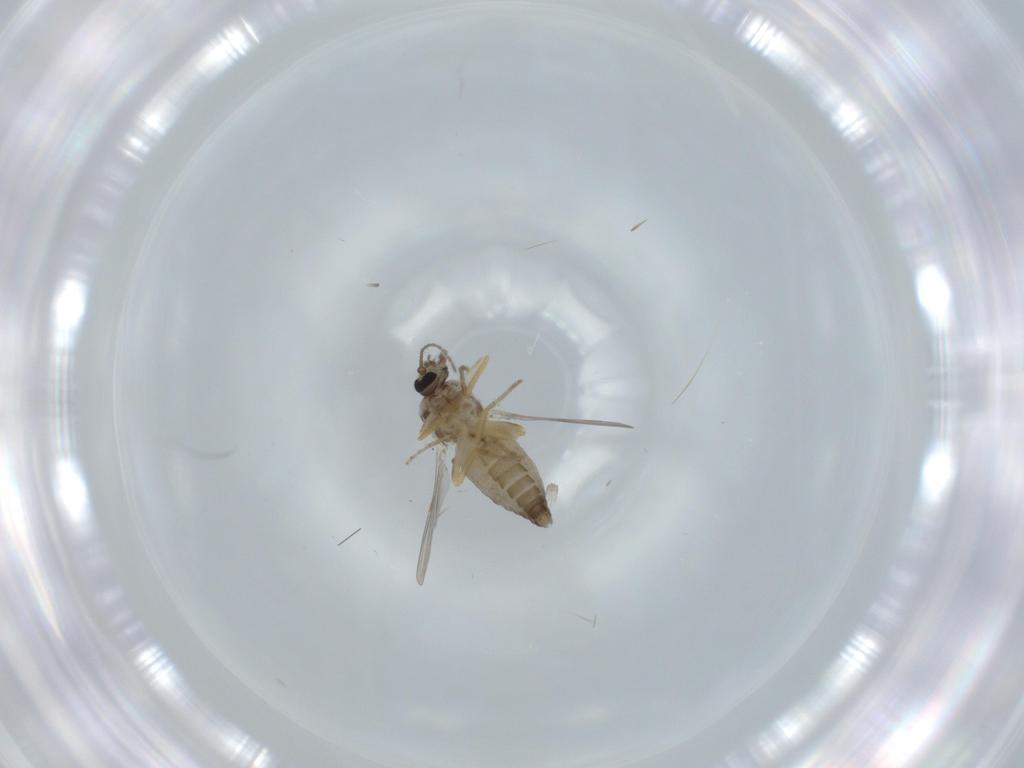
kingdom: Animalia
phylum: Arthropoda
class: Insecta
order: Diptera
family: Ceratopogonidae
